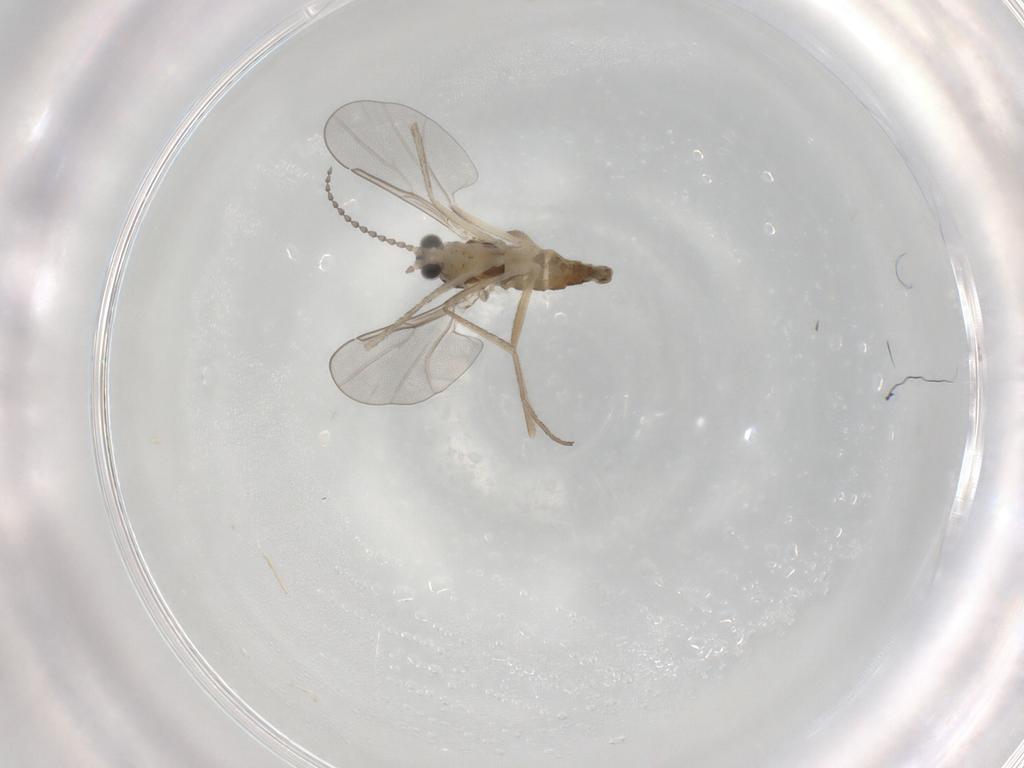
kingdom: Animalia
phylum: Arthropoda
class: Insecta
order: Diptera
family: Cecidomyiidae
